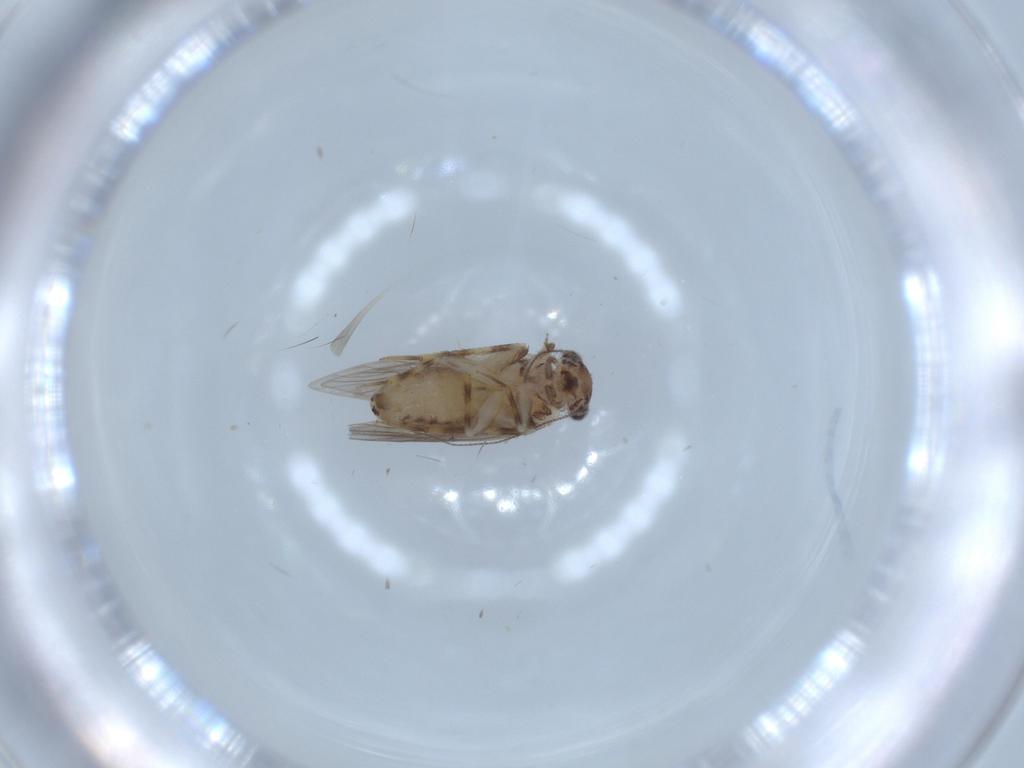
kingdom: Animalia
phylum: Arthropoda
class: Insecta
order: Psocodea
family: Lepidopsocidae
